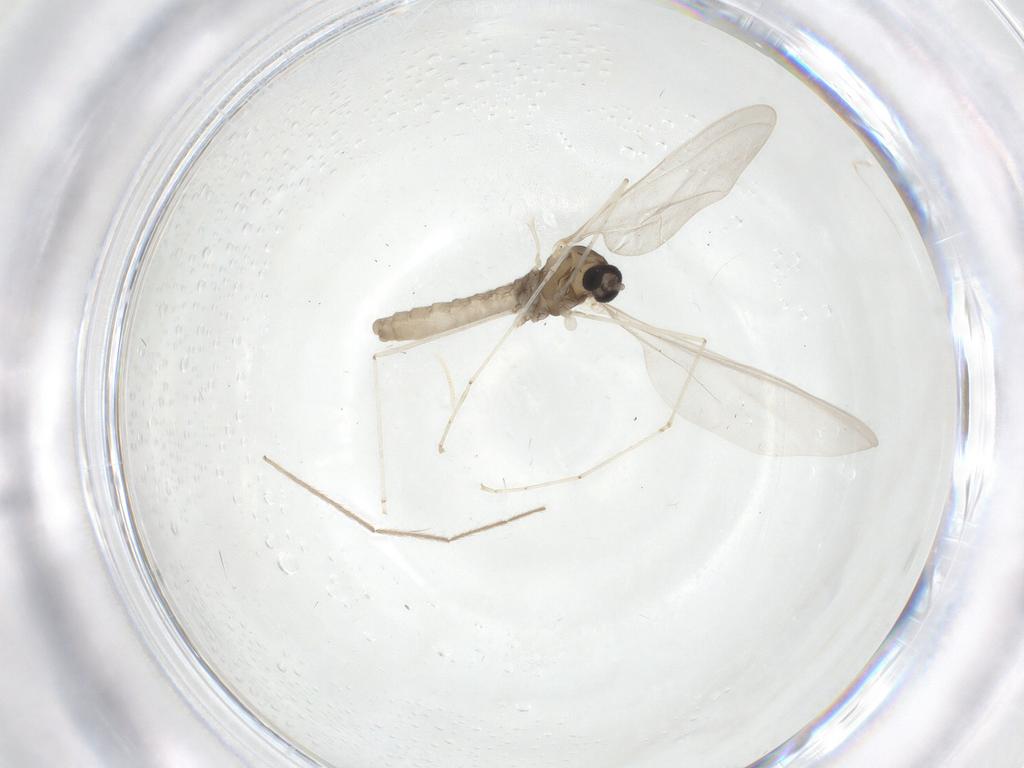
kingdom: Animalia
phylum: Arthropoda
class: Insecta
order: Diptera
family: Cecidomyiidae
